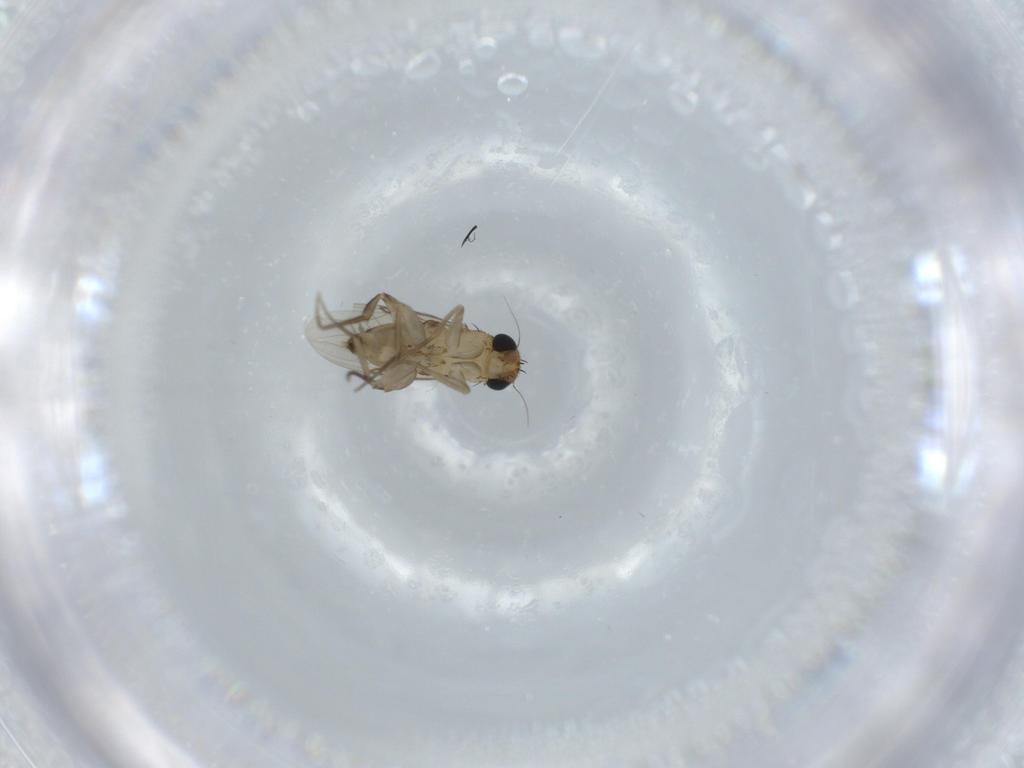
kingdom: Animalia
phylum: Arthropoda
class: Insecta
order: Diptera
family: Phoridae
